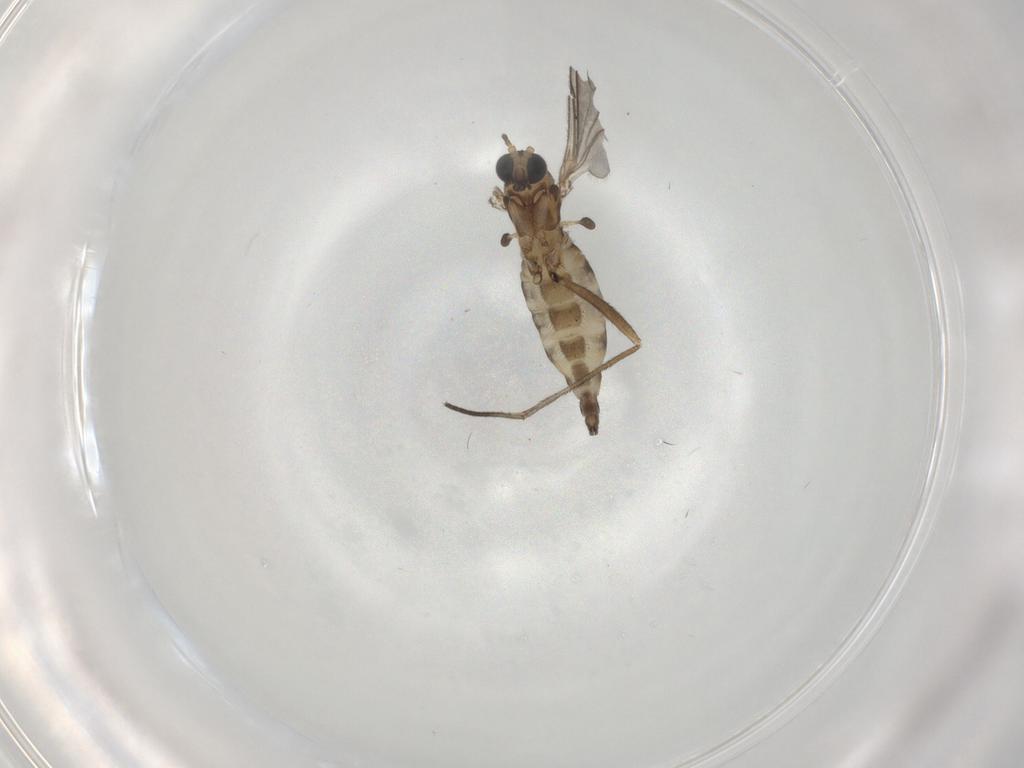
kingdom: Animalia
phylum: Arthropoda
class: Insecta
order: Diptera
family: Sciaridae
